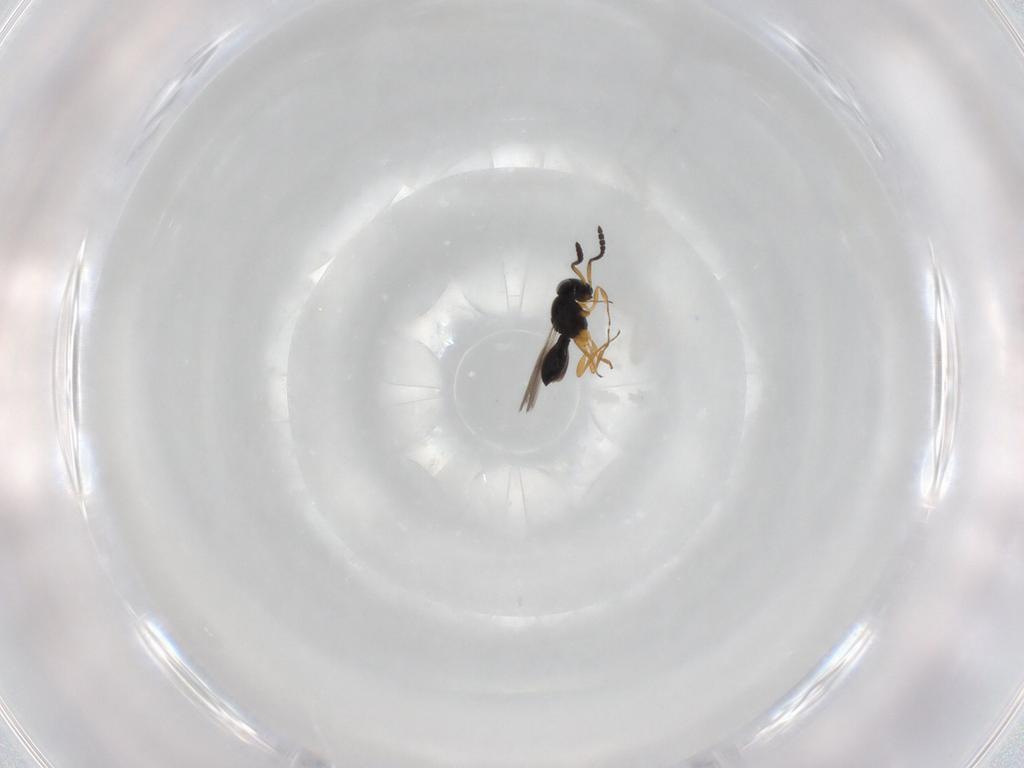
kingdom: Animalia
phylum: Arthropoda
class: Insecta
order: Hymenoptera
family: Scelionidae
